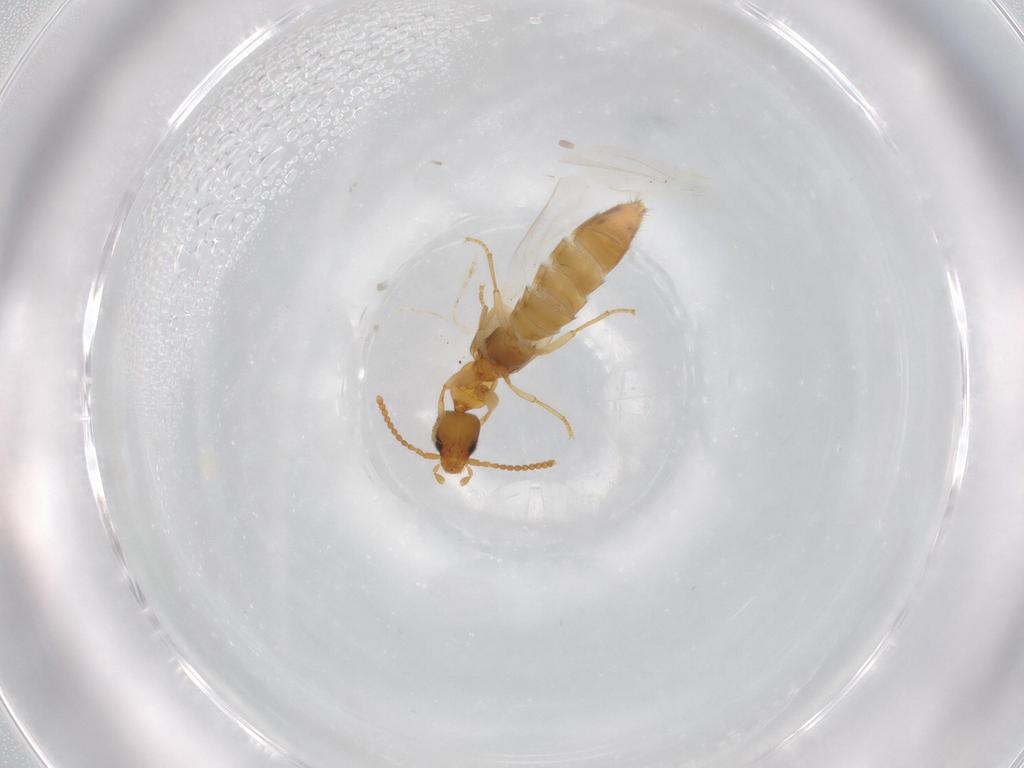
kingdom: Animalia
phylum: Arthropoda
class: Insecta
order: Coleoptera
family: Staphylinidae
